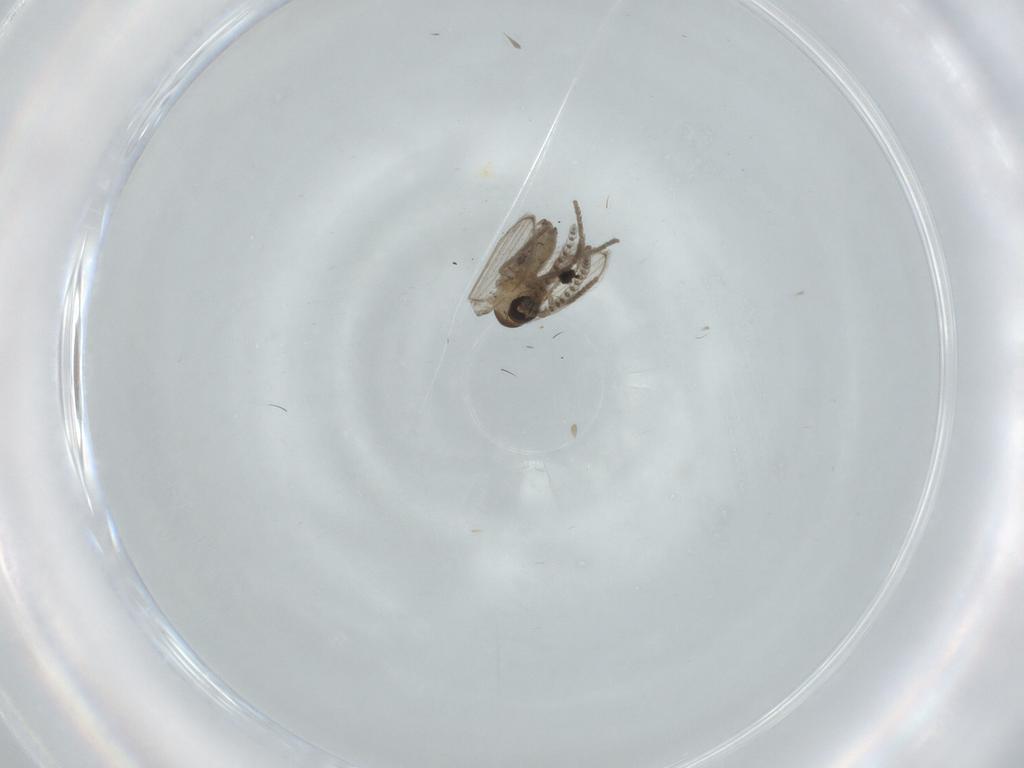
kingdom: Animalia
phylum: Arthropoda
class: Insecta
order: Diptera
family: Psychodidae
